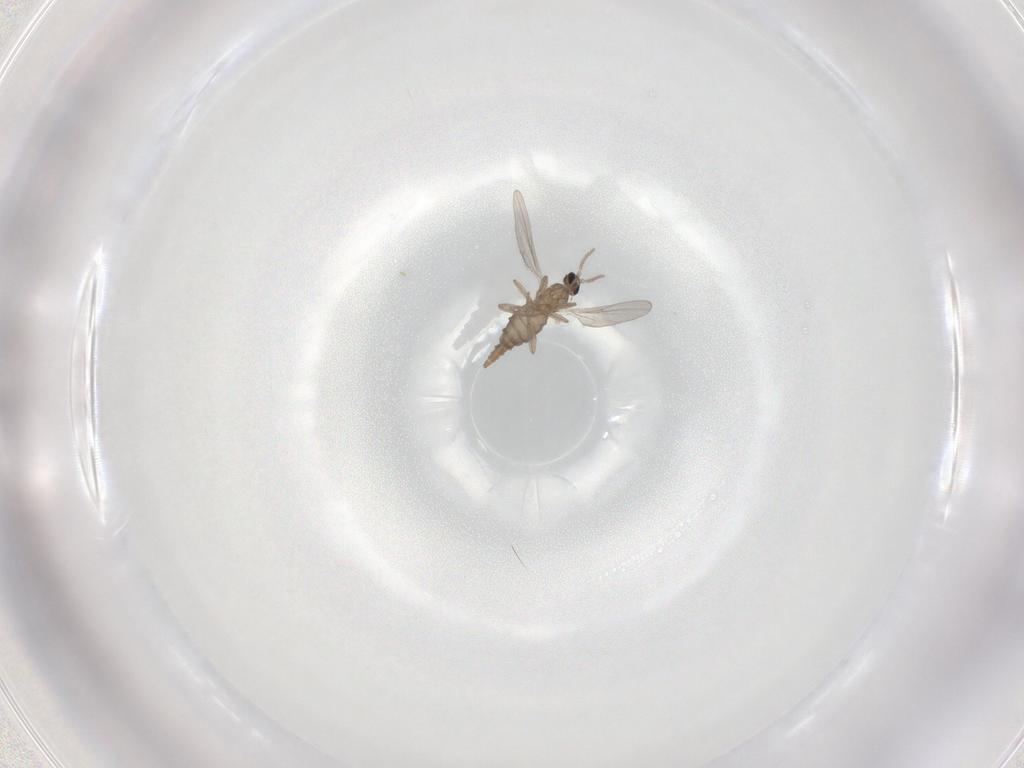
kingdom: Animalia
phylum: Arthropoda
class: Insecta
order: Diptera
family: Cecidomyiidae
